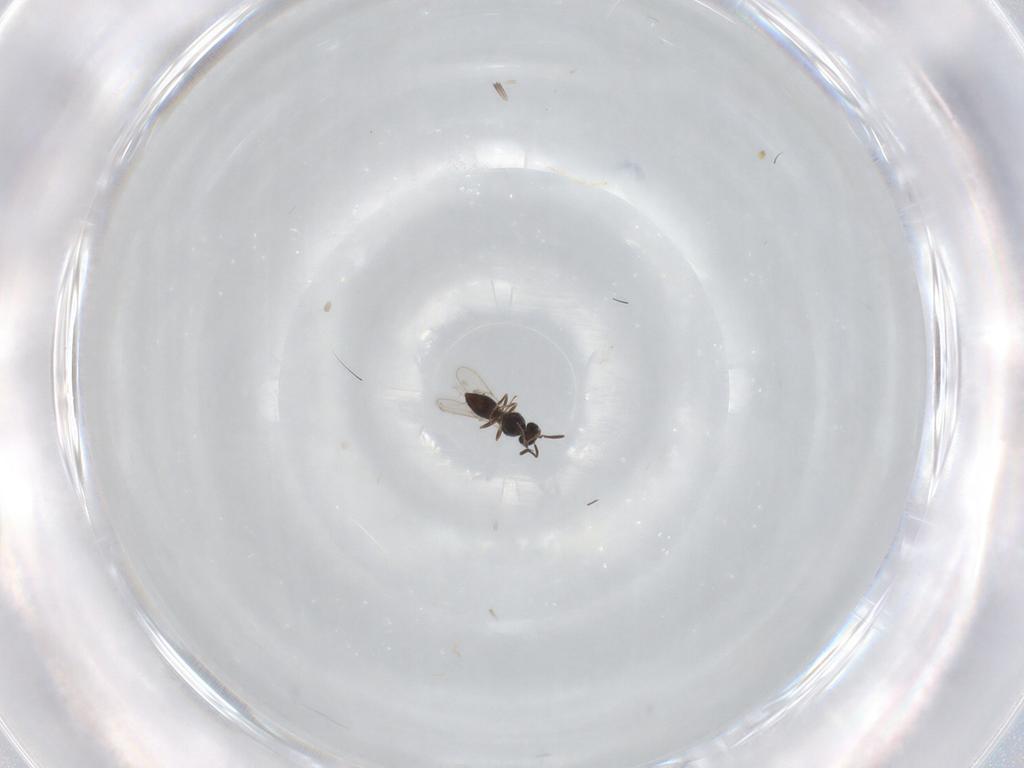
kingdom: Animalia
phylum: Arthropoda
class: Insecta
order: Hymenoptera
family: Scelionidae
